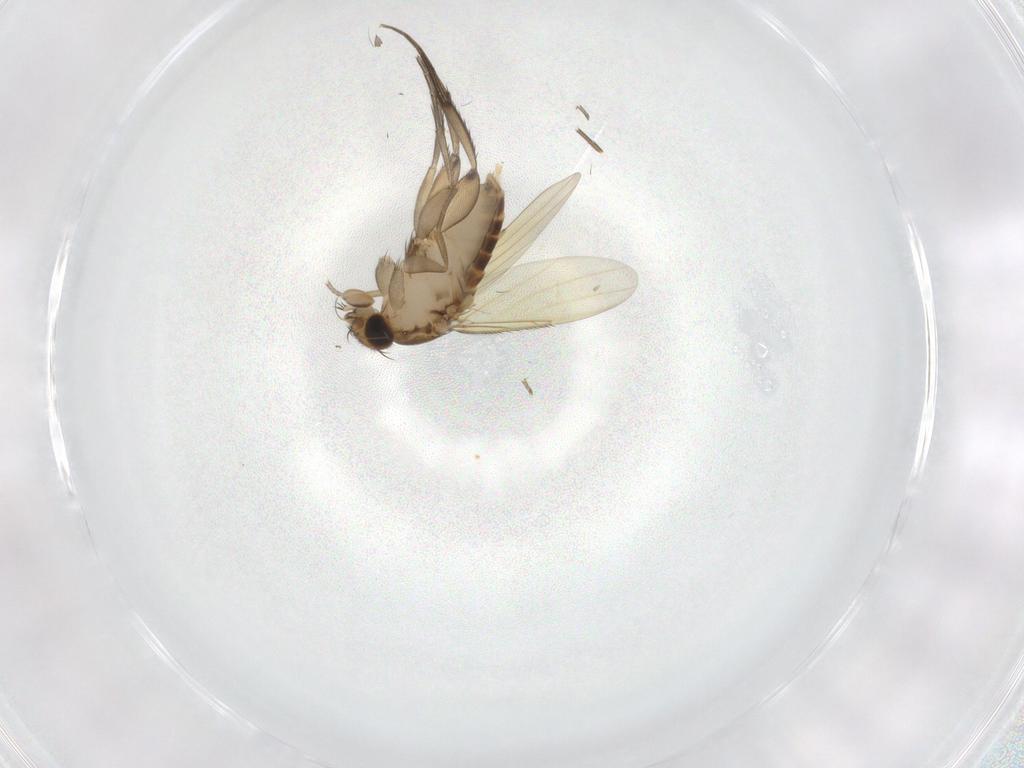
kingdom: Animalia
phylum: Arthropoda
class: Insecta
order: Diptera
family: Phoridae
